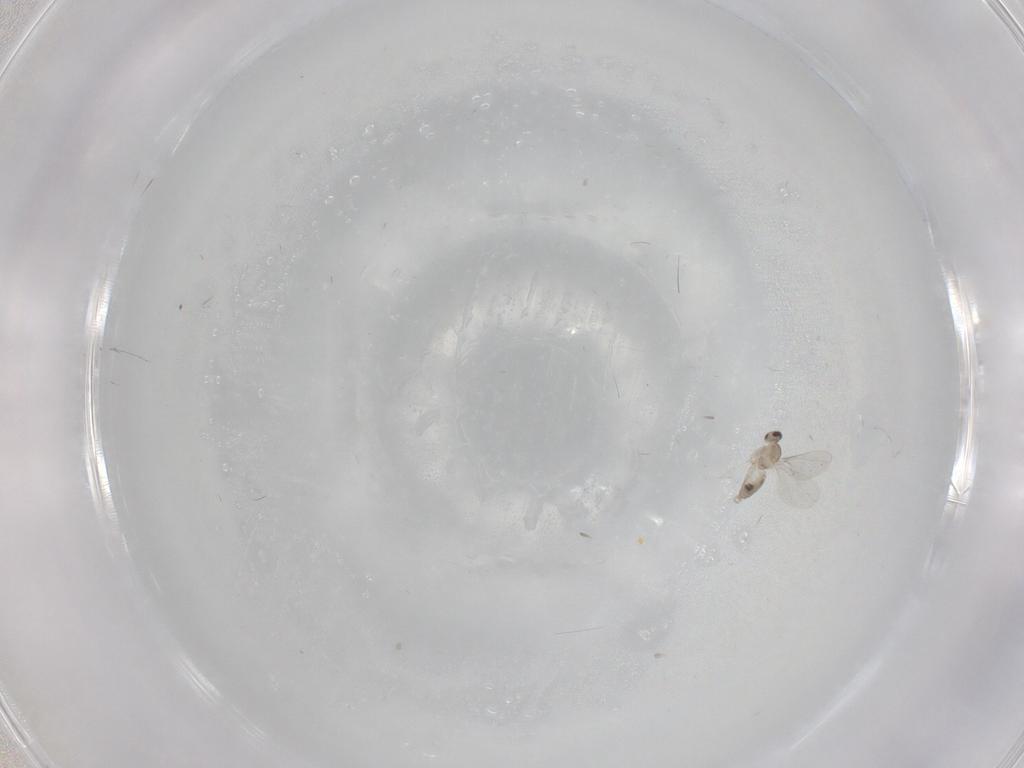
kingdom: Animalia
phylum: Arthropoda
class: Insecta
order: Diptera
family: Cecidomyiidae
